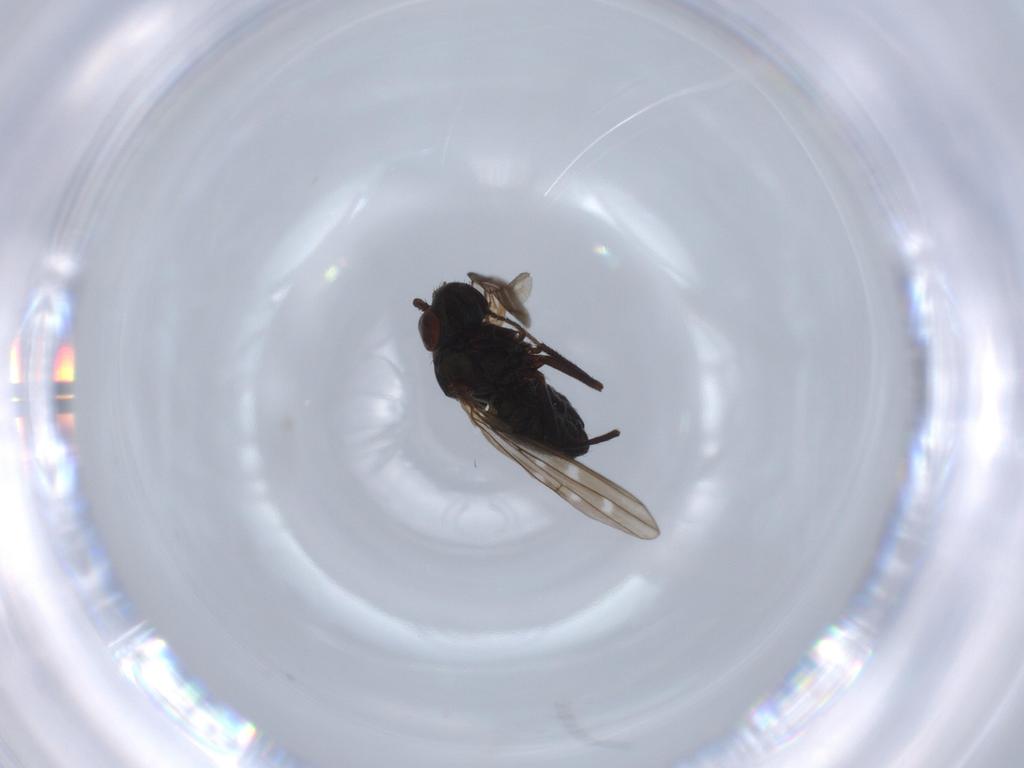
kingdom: Animalia
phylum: Arthropoda
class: Insecta
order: Diptera
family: Ephydridae
